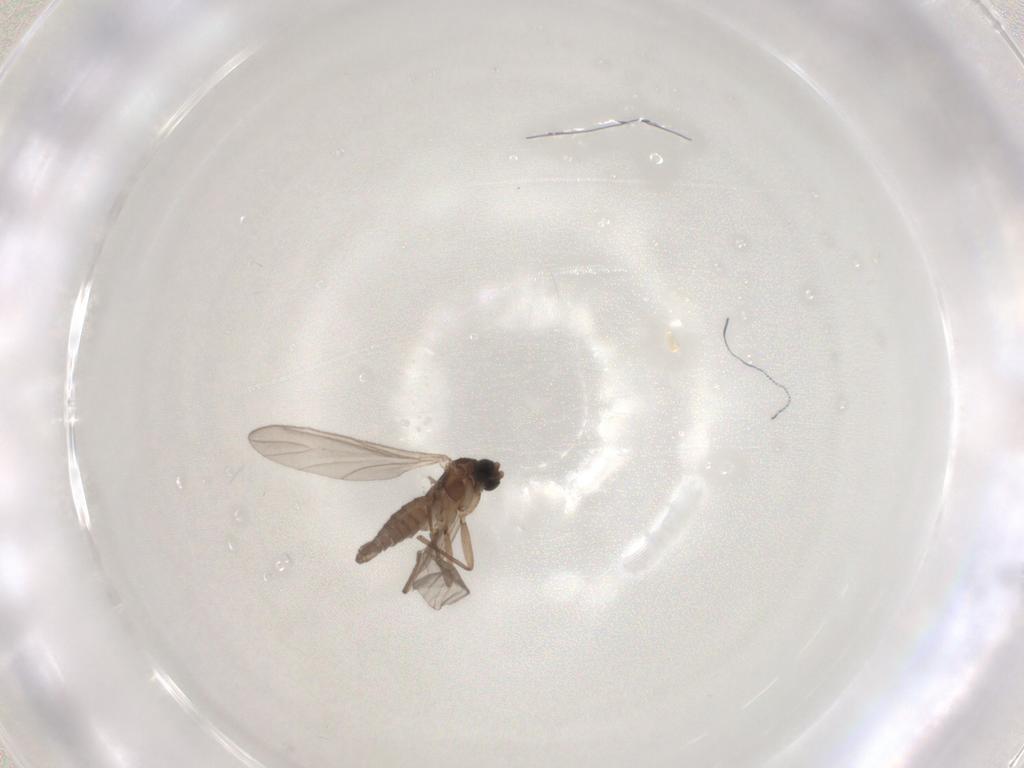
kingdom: Animalia
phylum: Arthropoda
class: Insecta
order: Diptera
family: Sciaridae
